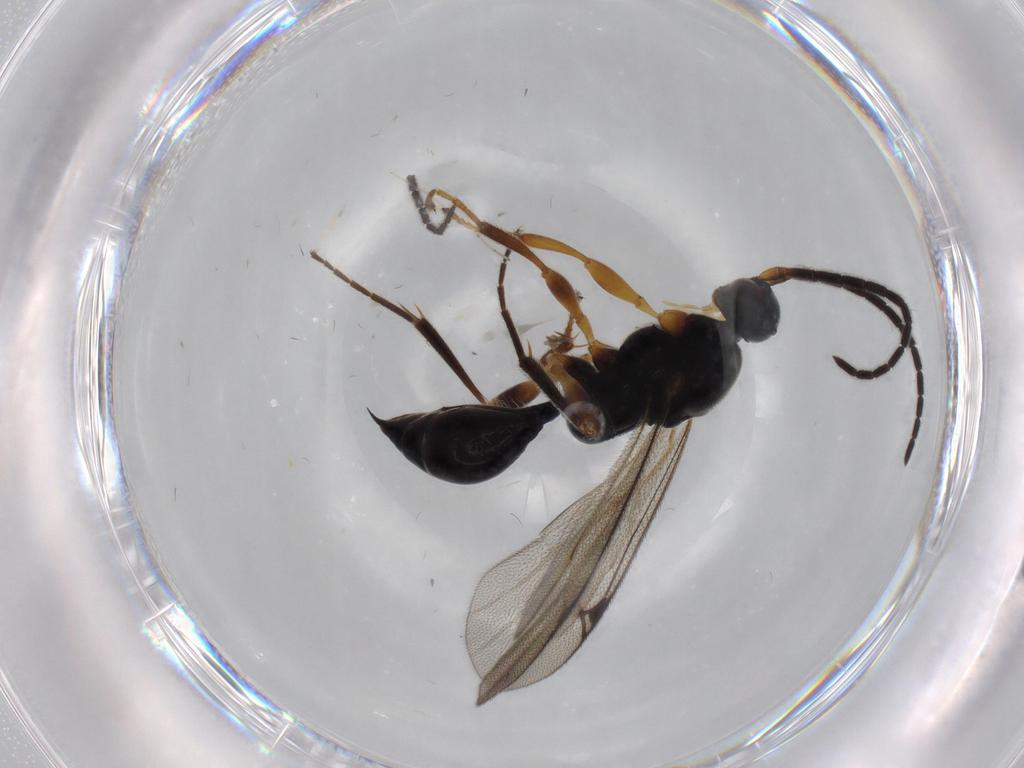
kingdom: Animalia
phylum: Arthropoda
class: Insecta
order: Hymenoptera
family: Proctotrupidae
